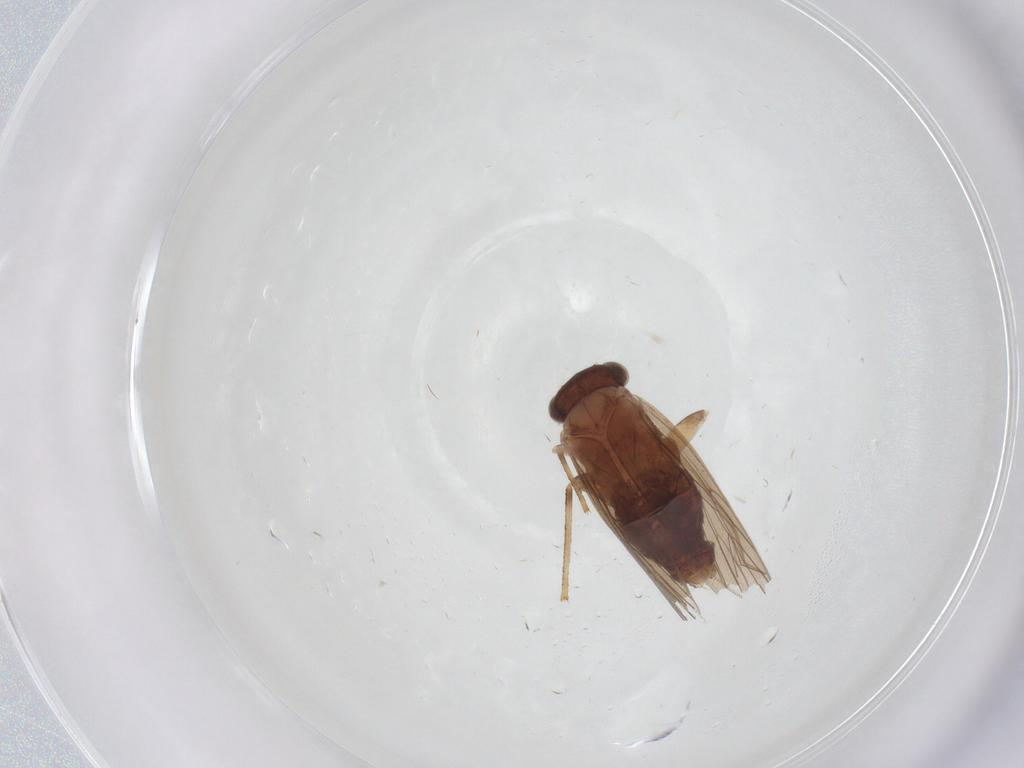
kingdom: Animalia
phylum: Arthropoda
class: Insecta
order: Psocodea
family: Lepidopsocidae
